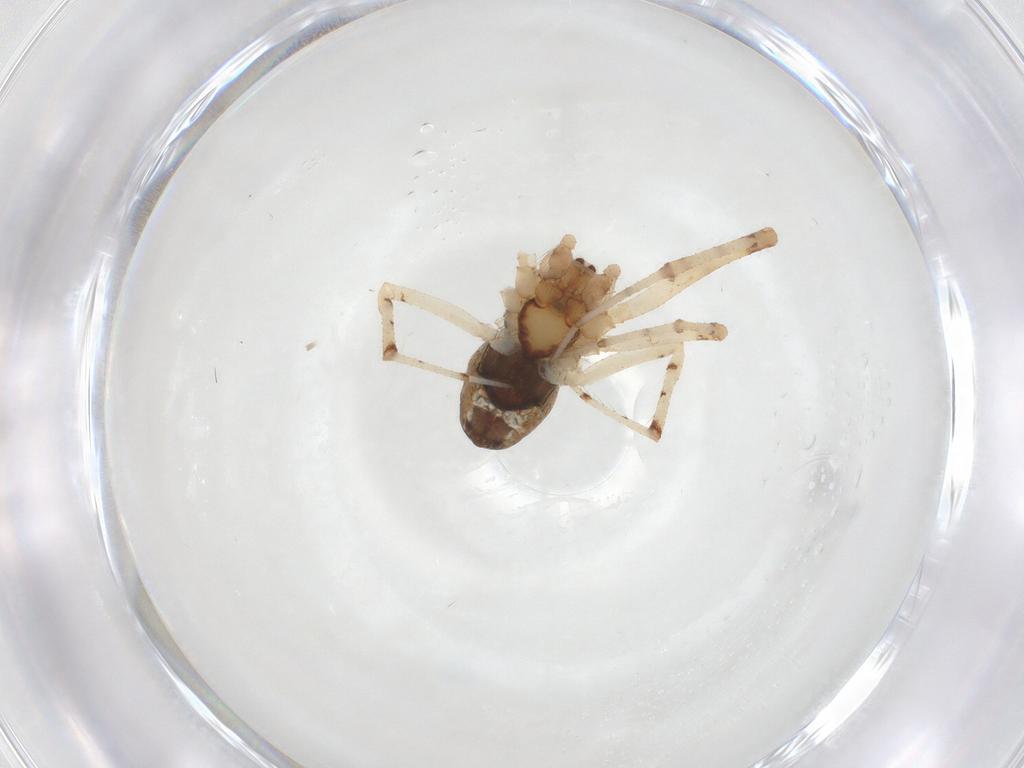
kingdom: Animalia
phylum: Arthropoda
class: Arachnida
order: Araneae
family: Theridiidae
